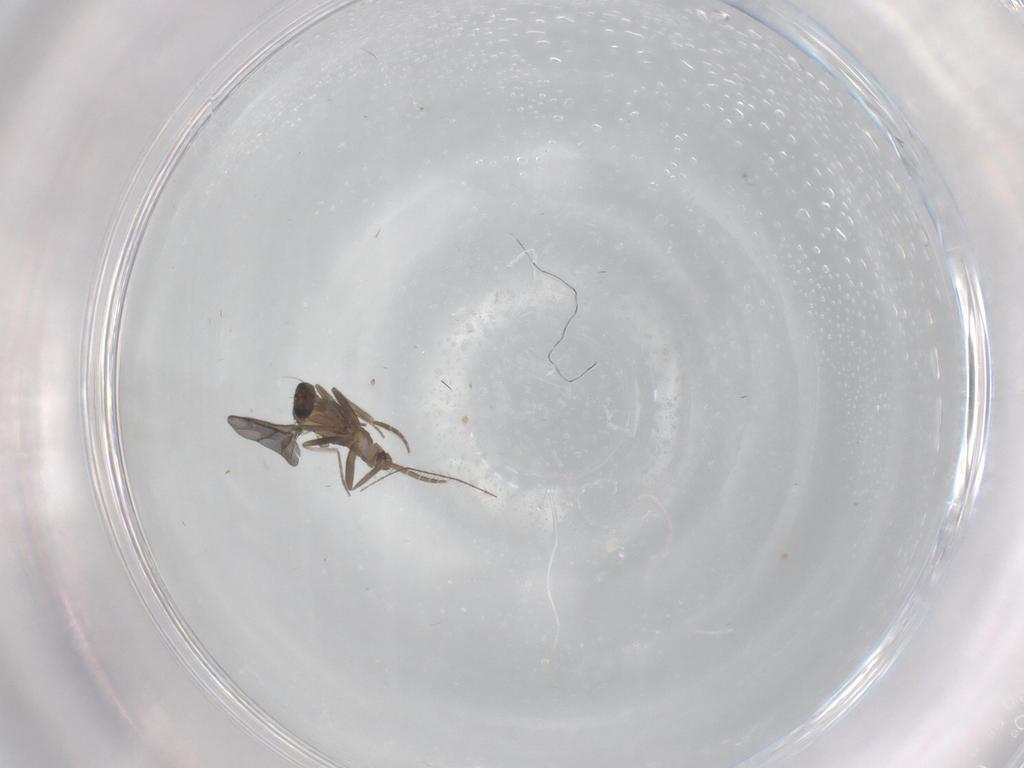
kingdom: Animalia
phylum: Arthropoda
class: Insecta
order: Diptera
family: Phoridae
